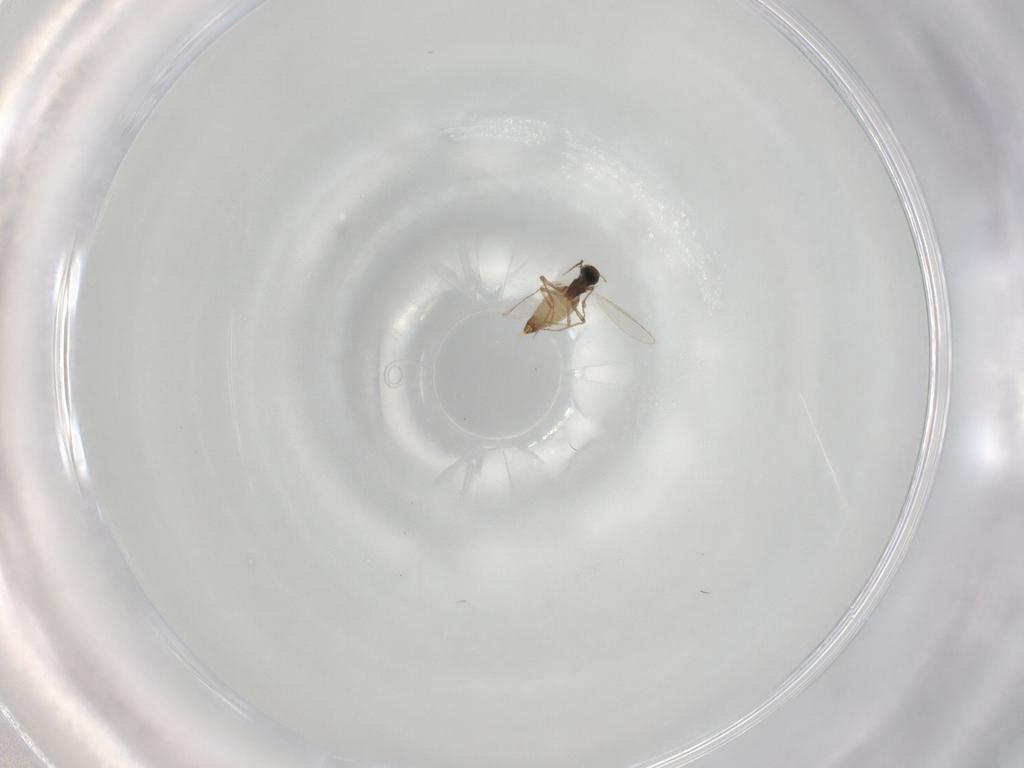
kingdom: Animalia
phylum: Arthropoda
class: Insecta
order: Diptera
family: Chironomidae
